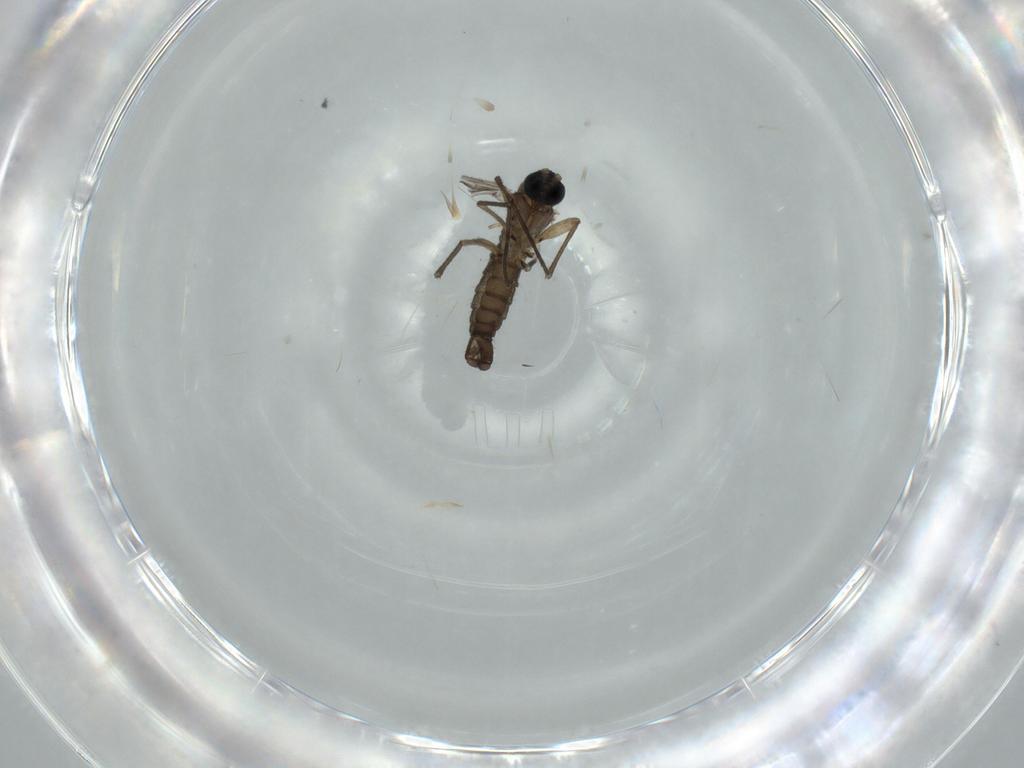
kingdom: Animalia
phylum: Arthropoda
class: Insecta
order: Diptera
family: Sciaridae
